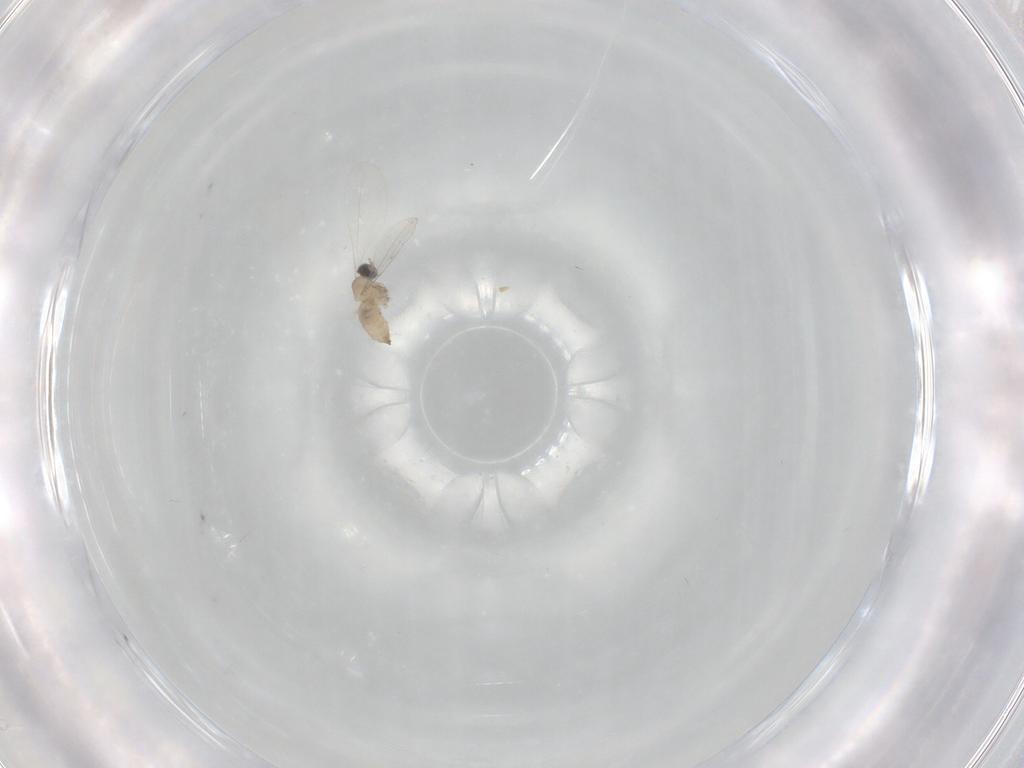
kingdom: Animalia
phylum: Arthropoda
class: Insecta
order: Diptera
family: Cecidomyiidae
